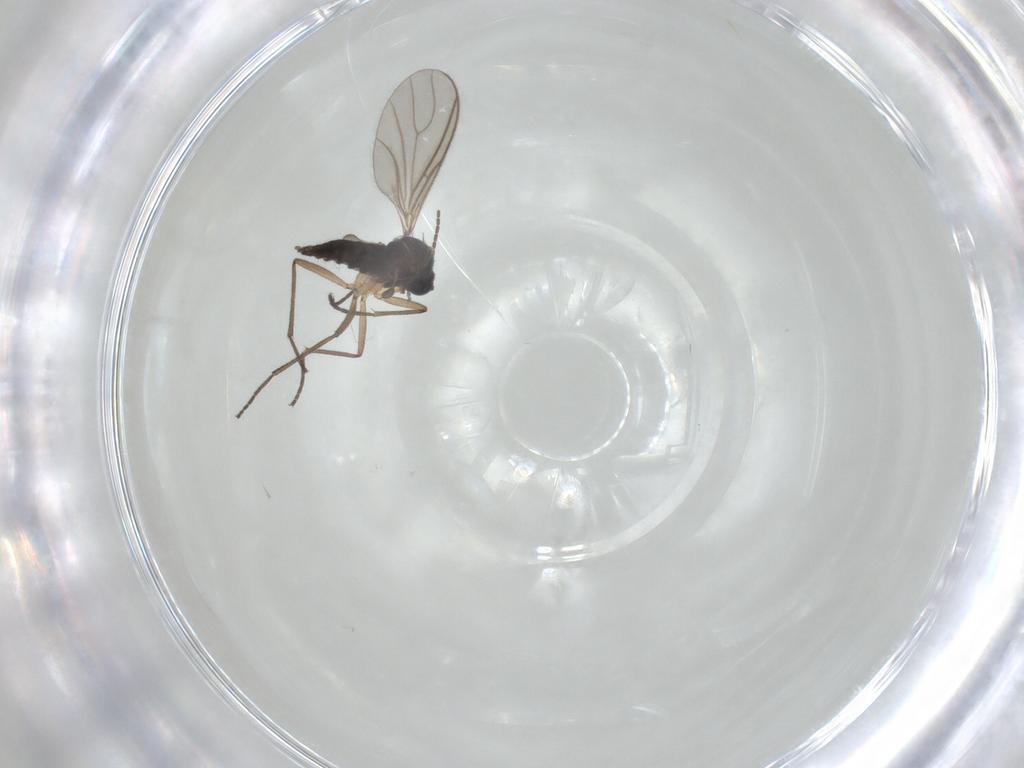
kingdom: Animalia
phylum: Arthropoda
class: Insecta
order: Diptera
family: Sciaridae
